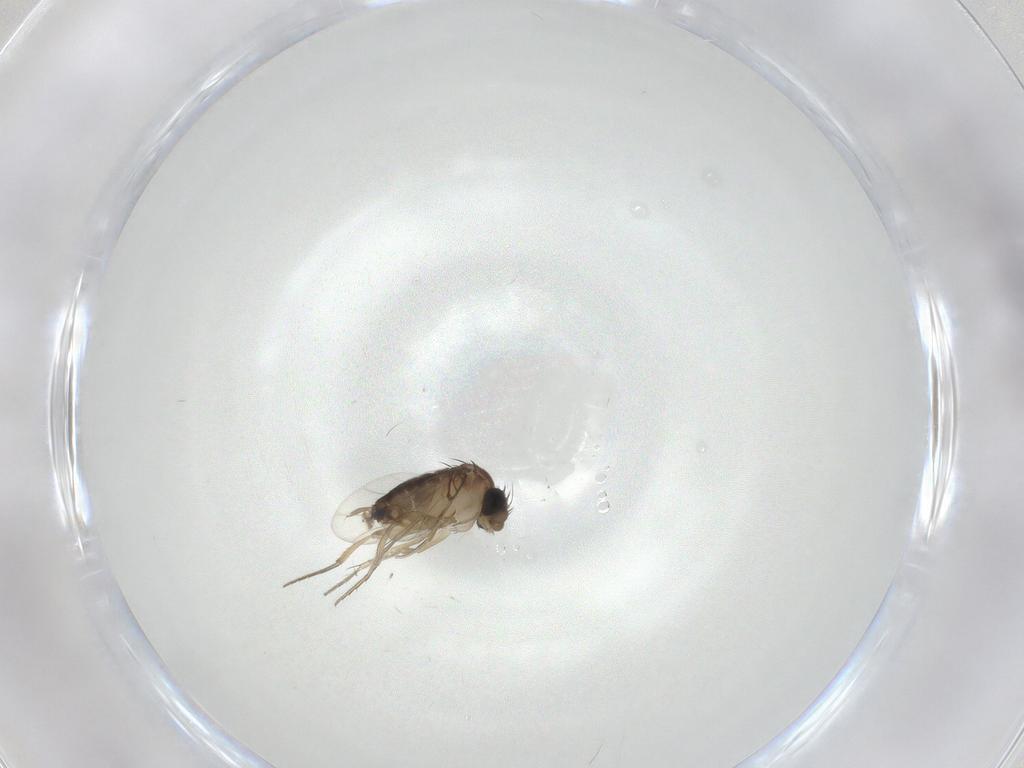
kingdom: Animalia
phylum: Arthropoda
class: Insecta
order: Diptera
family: Phoridae
